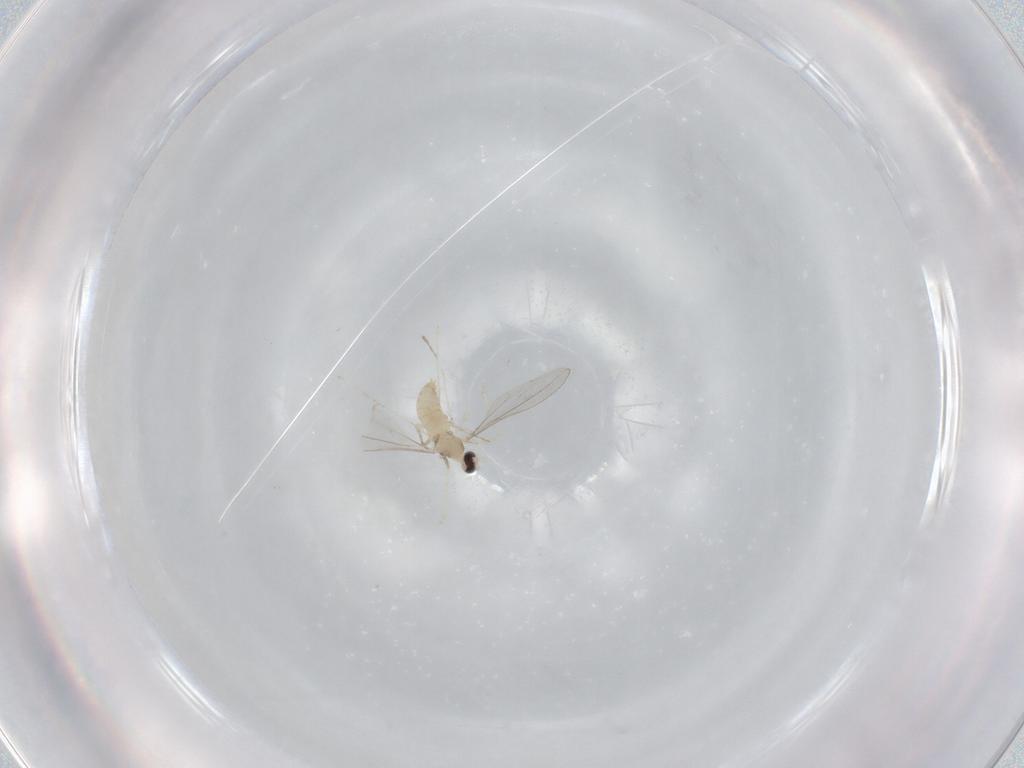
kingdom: Animalia
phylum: Arthropoda
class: Insecta
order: Diptera
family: Cecidomyiidae
